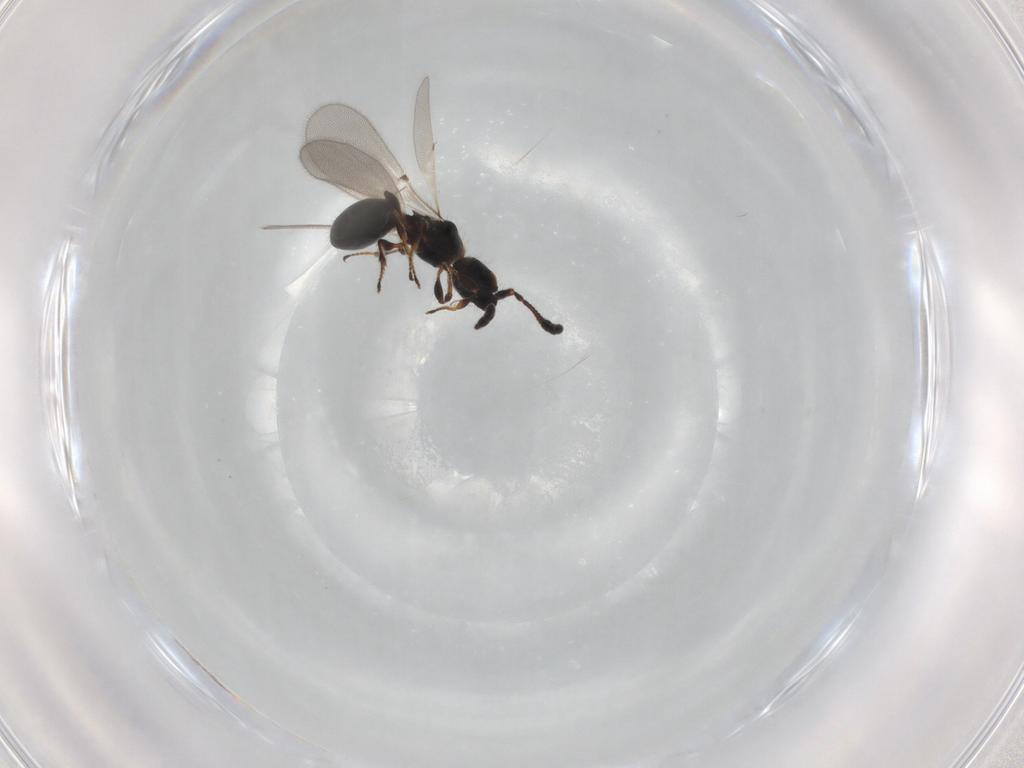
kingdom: Animalia
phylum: Arthropoda
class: Insecta
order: Hymenoptera
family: Diapriidae
